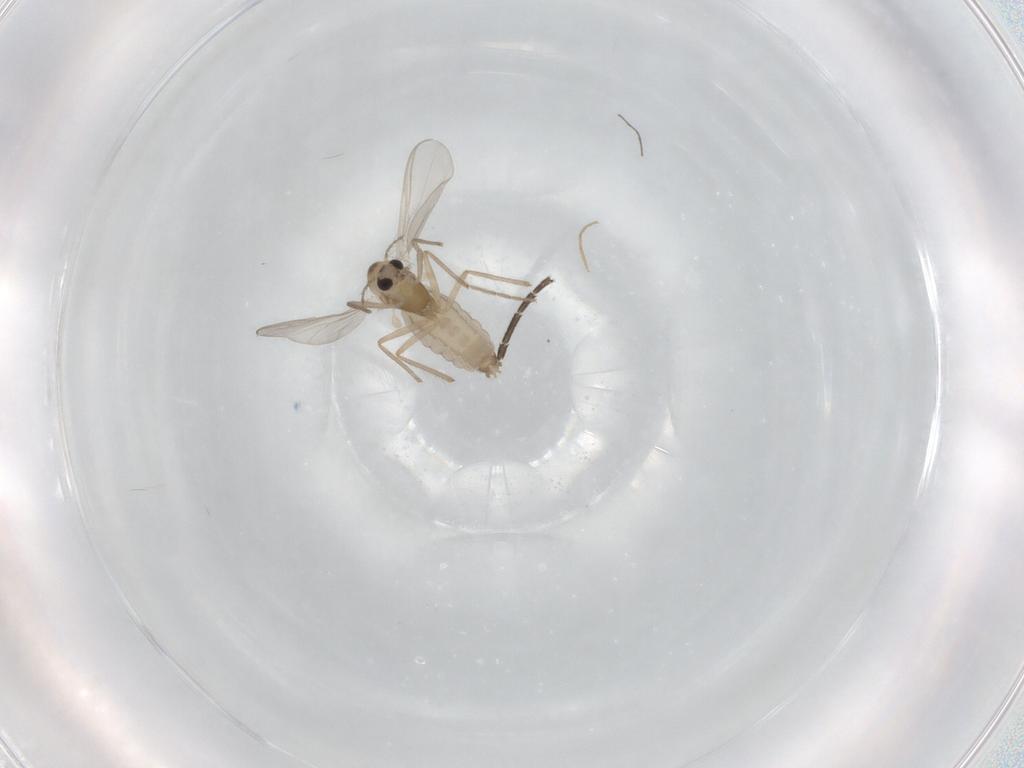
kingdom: Animalia
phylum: Arthropoda
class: Insecta
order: Diptera
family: Chironomidae
